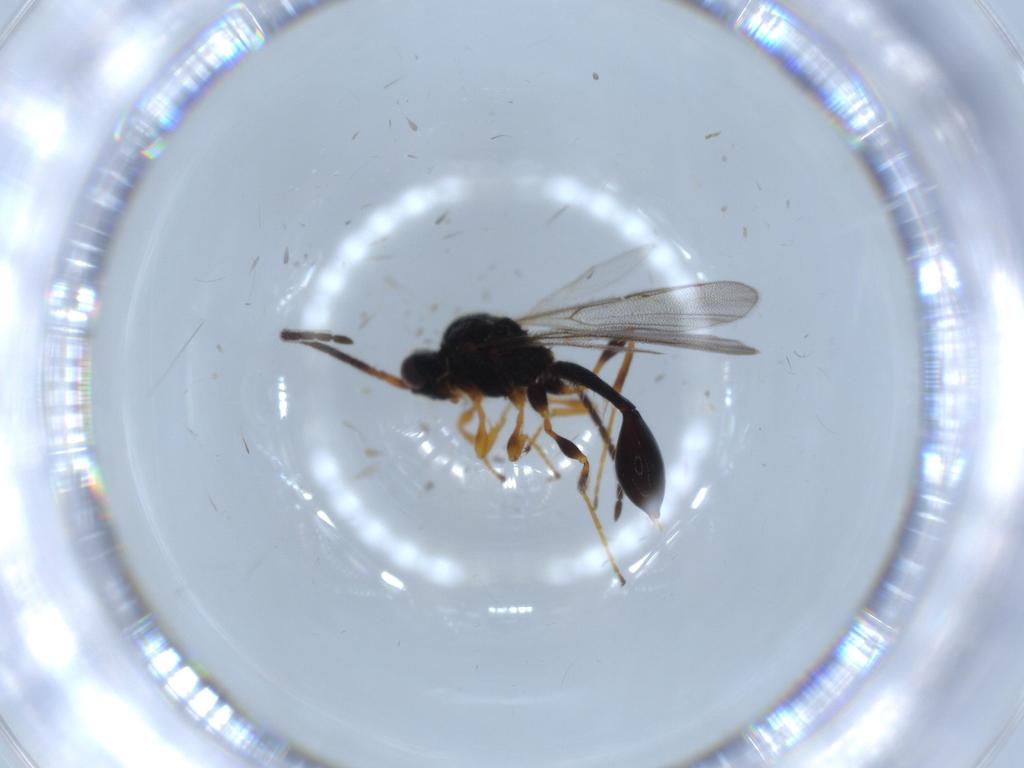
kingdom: Animalia
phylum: Arthropoda
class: Insecta
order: Hymenoptera
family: Diapriidae
